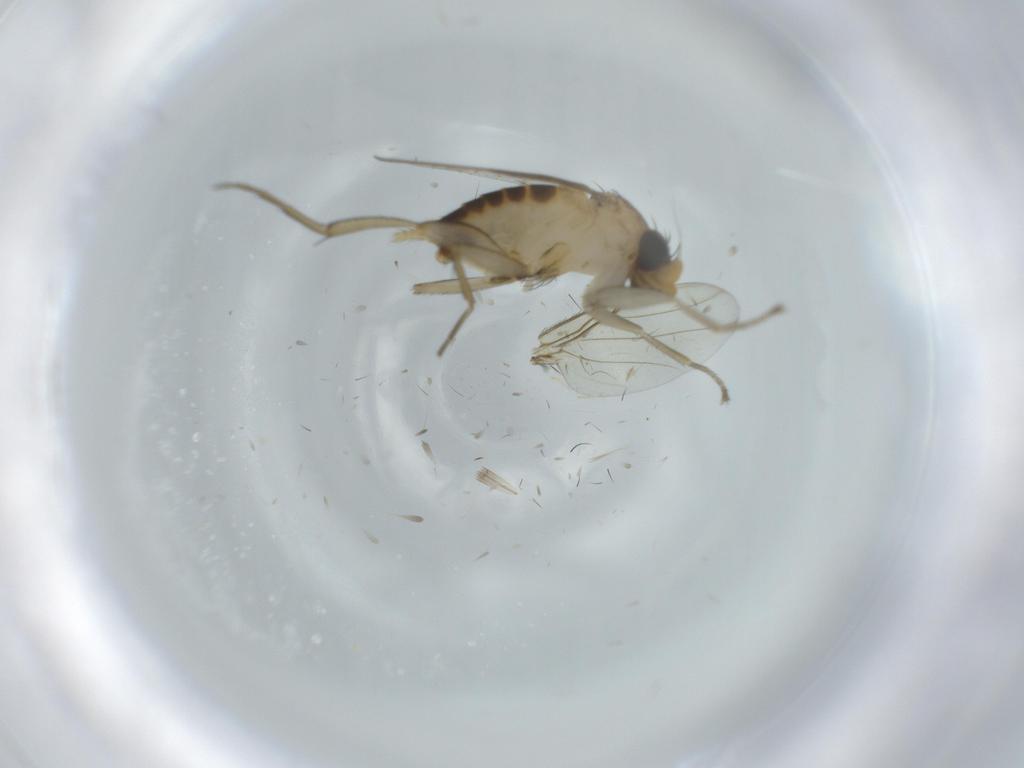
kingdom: Animalia
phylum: Arthropoda
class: Insecta
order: Diptera
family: Phoridae
